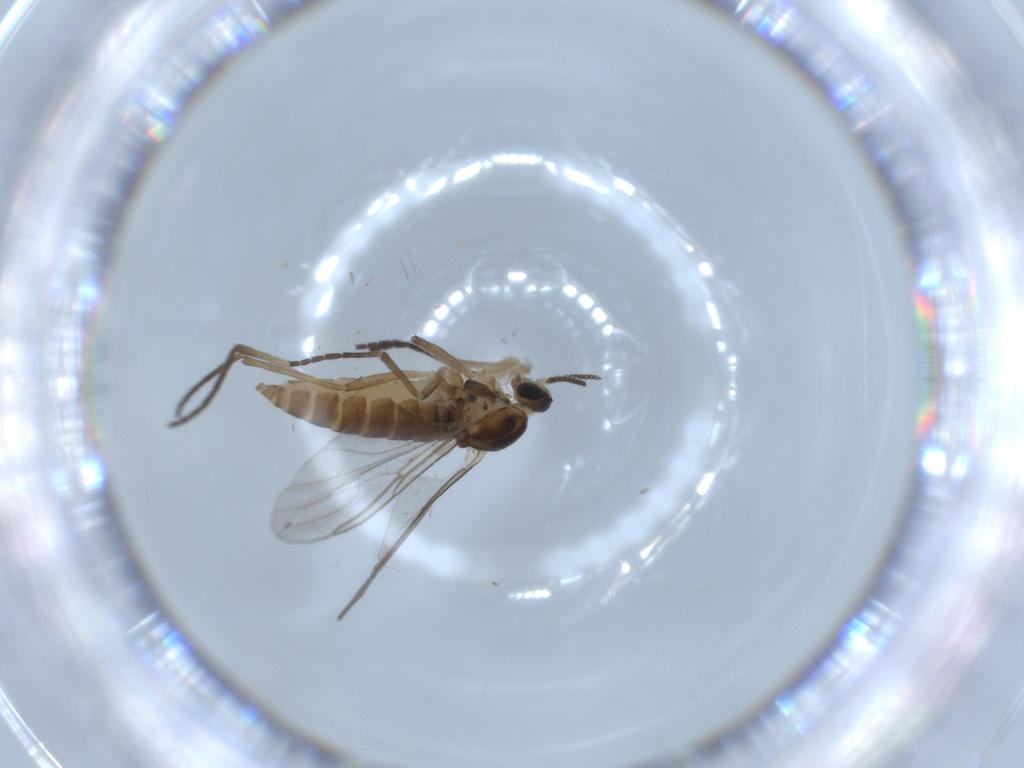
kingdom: Animalia
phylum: Arthropoda
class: Insecta
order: Diptera
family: Cecidomyiidae
